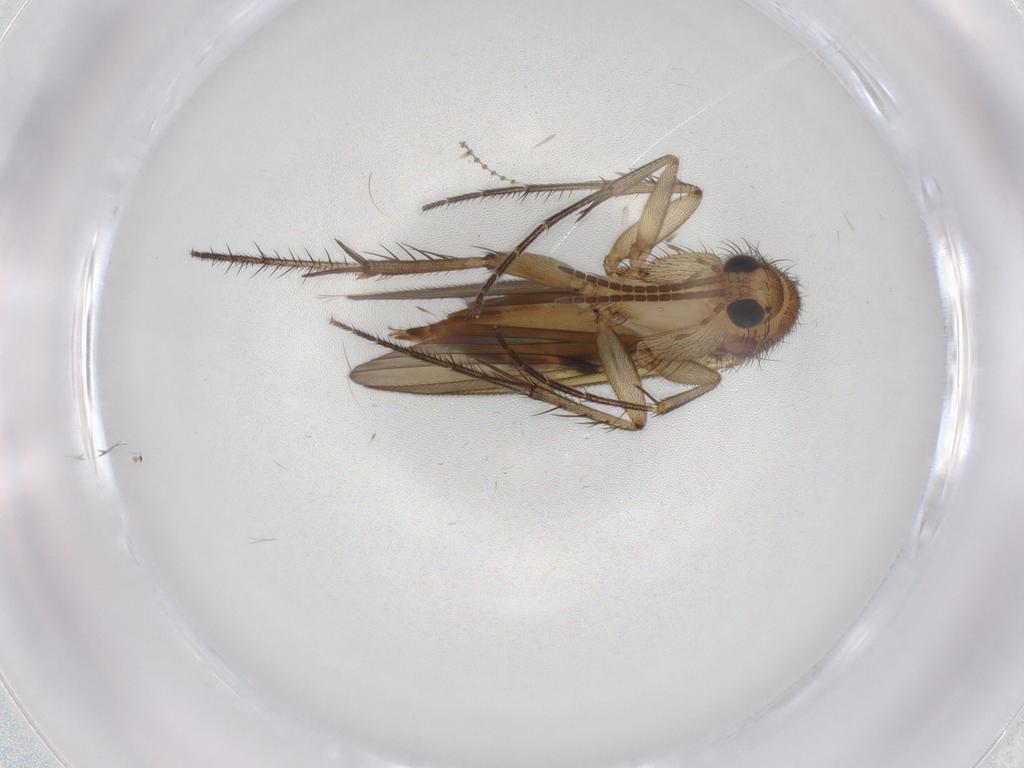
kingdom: Animalia
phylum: Arthropoda
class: Insecta
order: Diptera
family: Mycetophilidae
